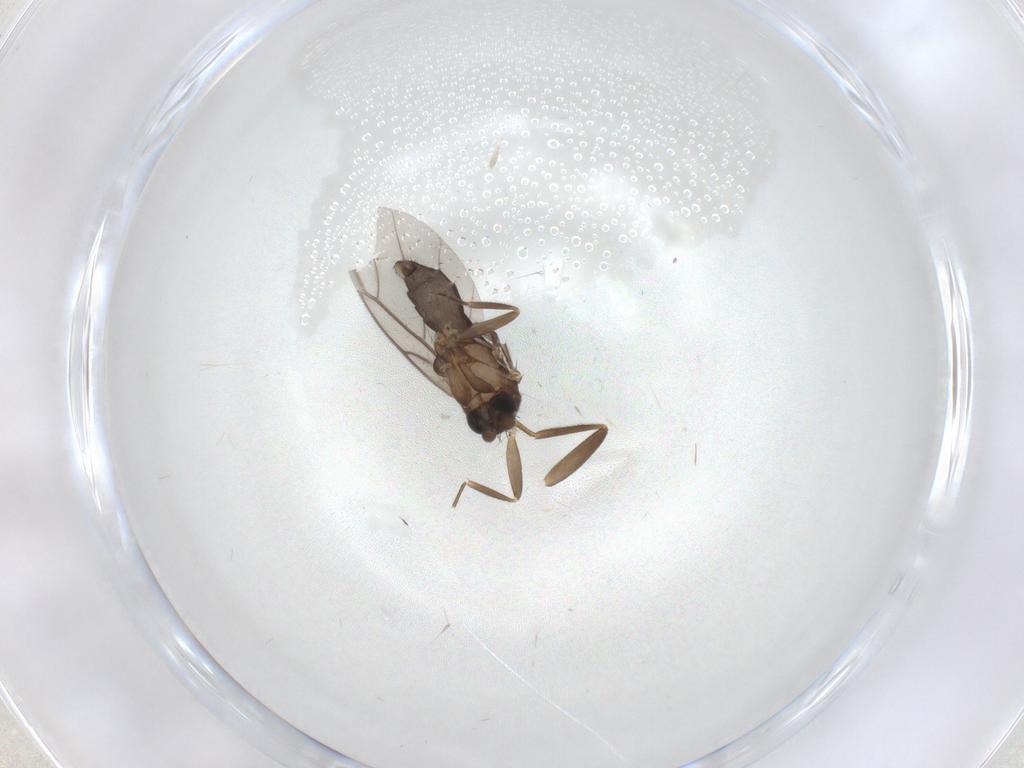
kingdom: Animalia
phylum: Arthropoda
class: Insecta
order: Diptera
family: Ceratopogonidae
